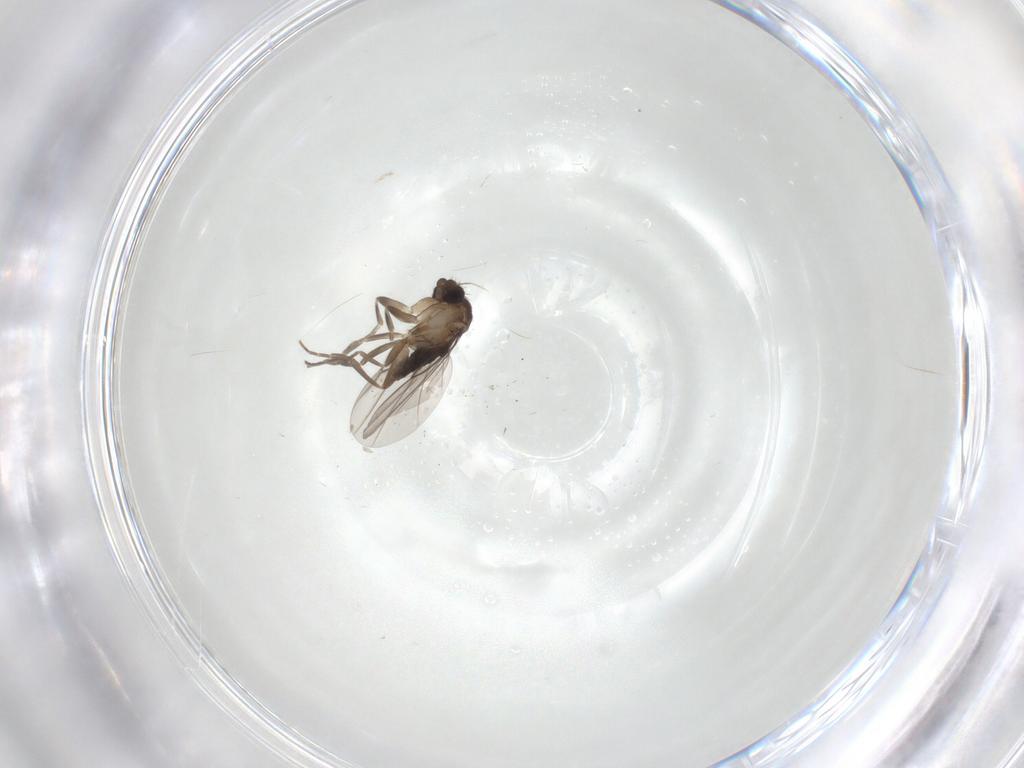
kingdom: Animalia
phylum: Arthropoda
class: Insecta
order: Diptera
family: Phoridae
